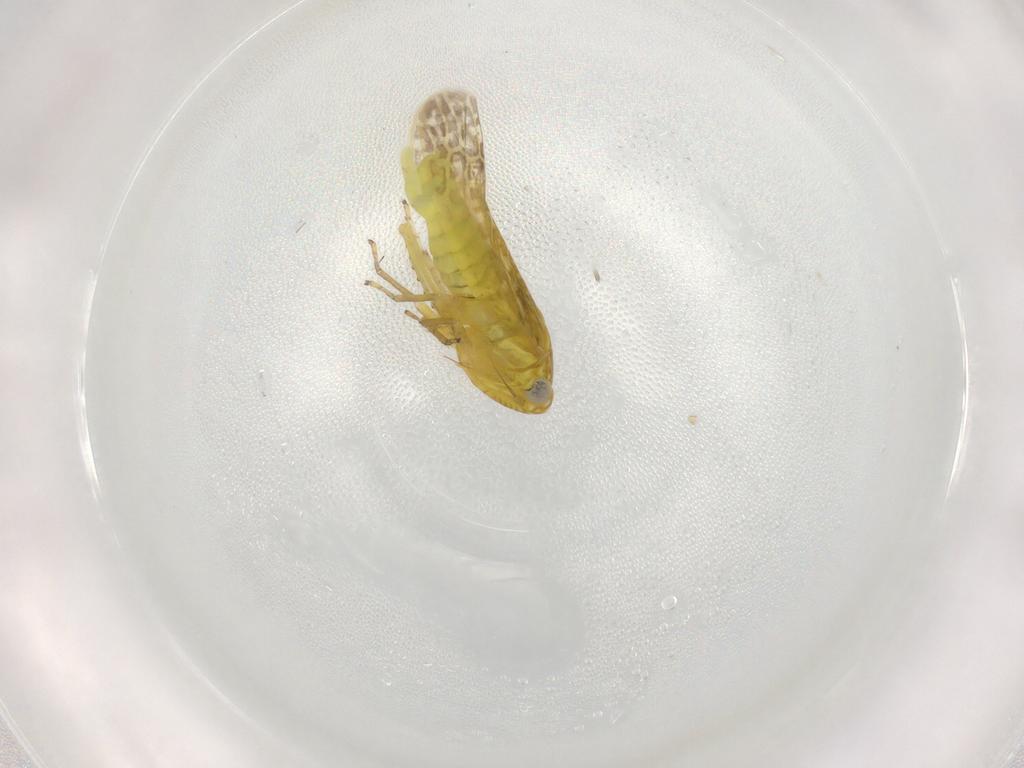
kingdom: Animalia
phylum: Arthropoda
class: Insecta
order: Hemiptera
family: Cicadellidae
